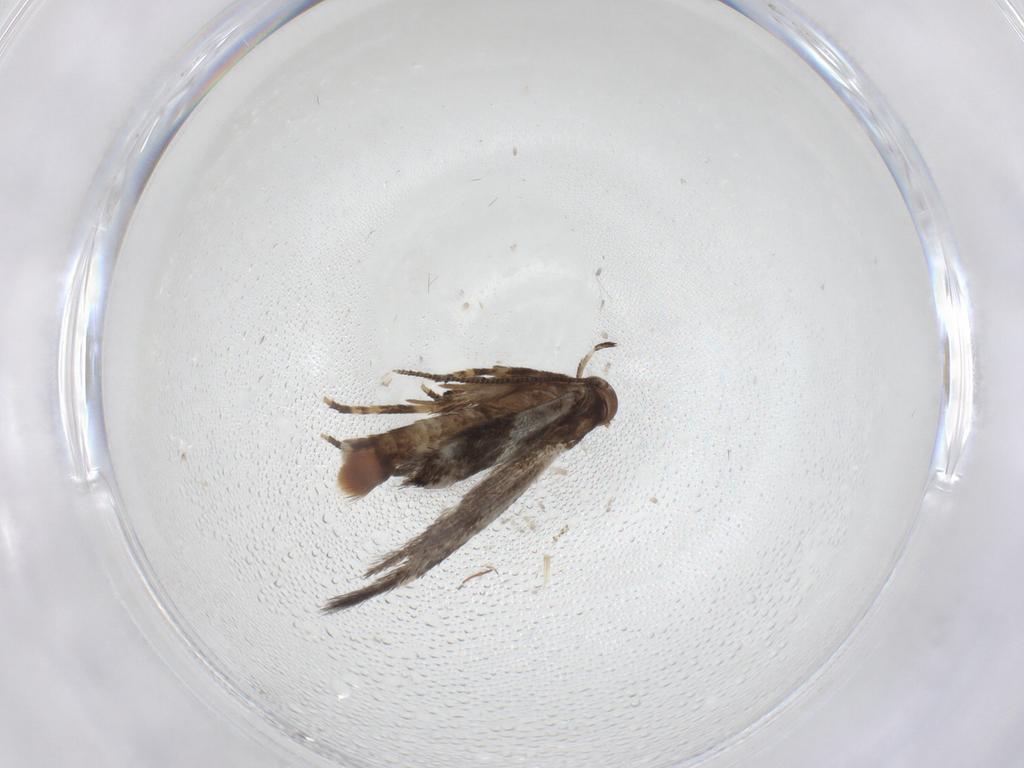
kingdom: Animalia
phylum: Arthropoda
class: Insecta
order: Lepidoptera
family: Elachistidae
